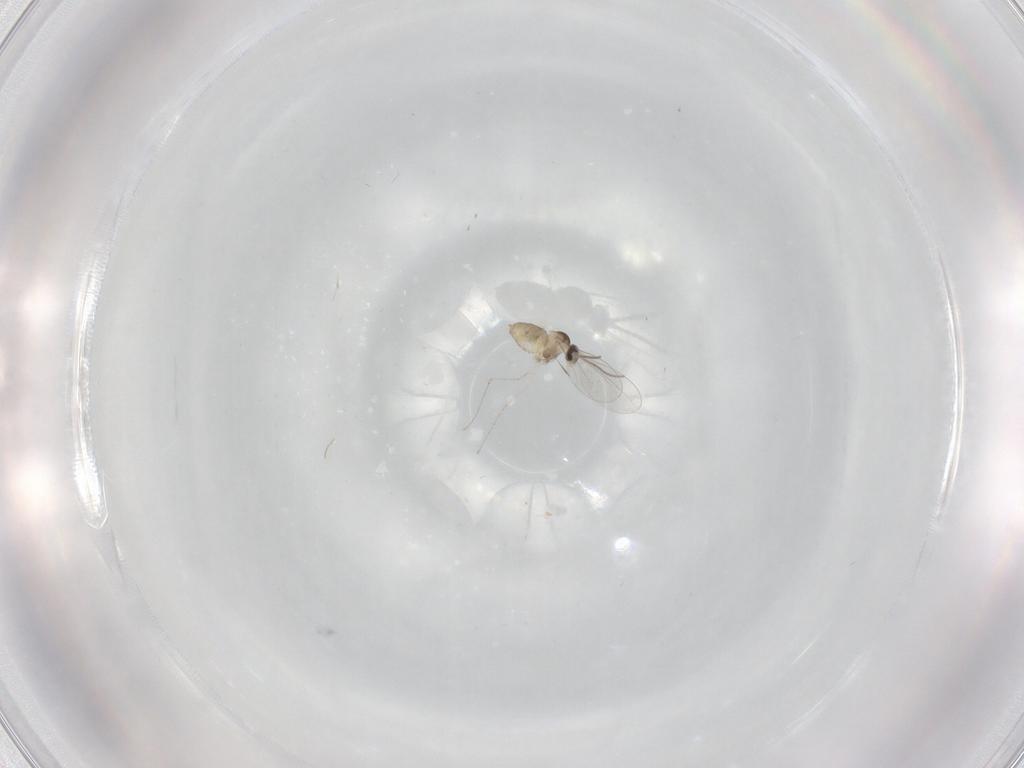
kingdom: Animalia
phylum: Arthropoda
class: Insecta
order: Diptera
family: Cecidomyiidae
